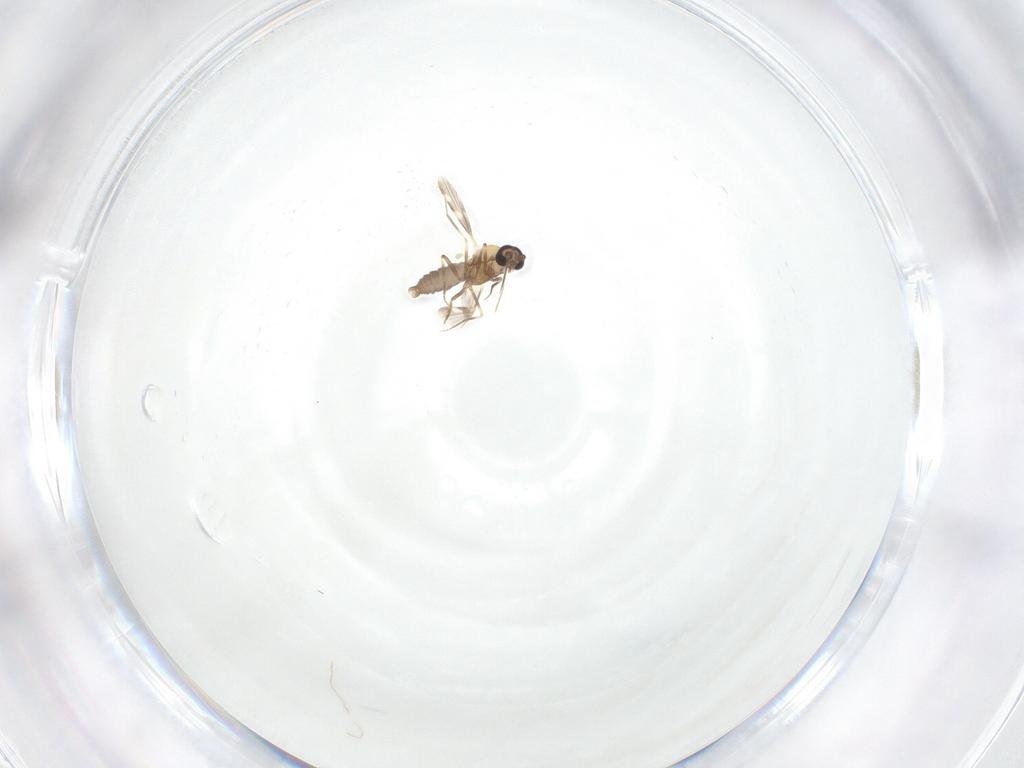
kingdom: Animalia
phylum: Arthropoda
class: Insecta
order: Diptera
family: Ceratopogonidae
